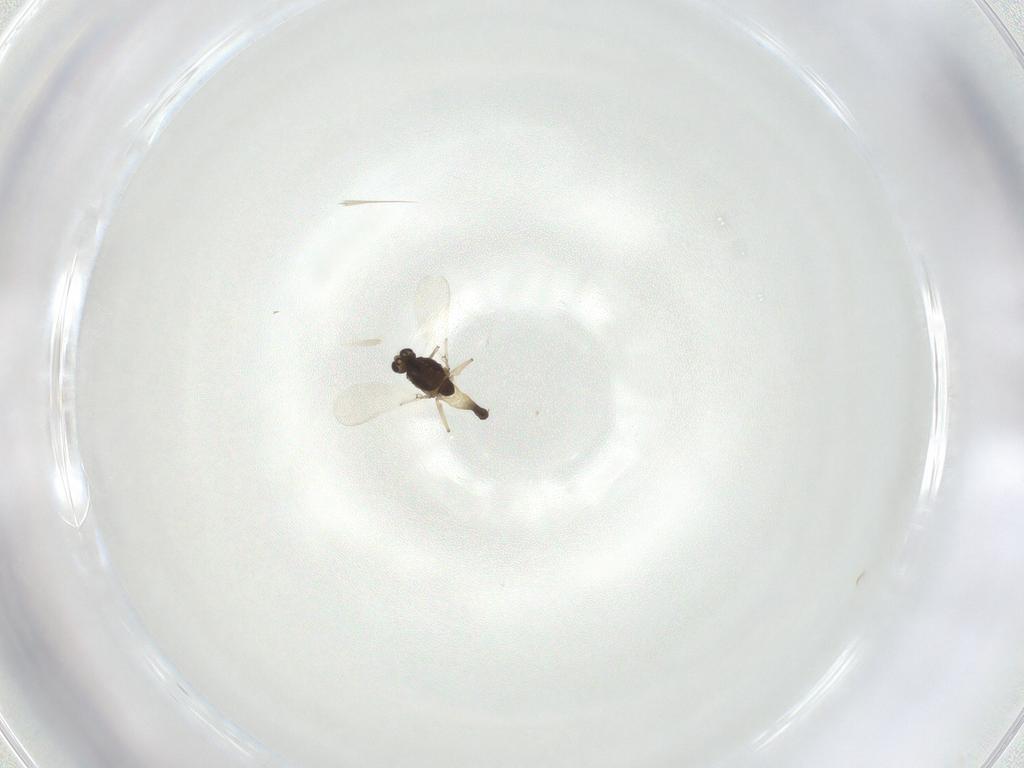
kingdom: Animalia
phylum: Arthropoda
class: Insecta
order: Diptera
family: Chironomidae
